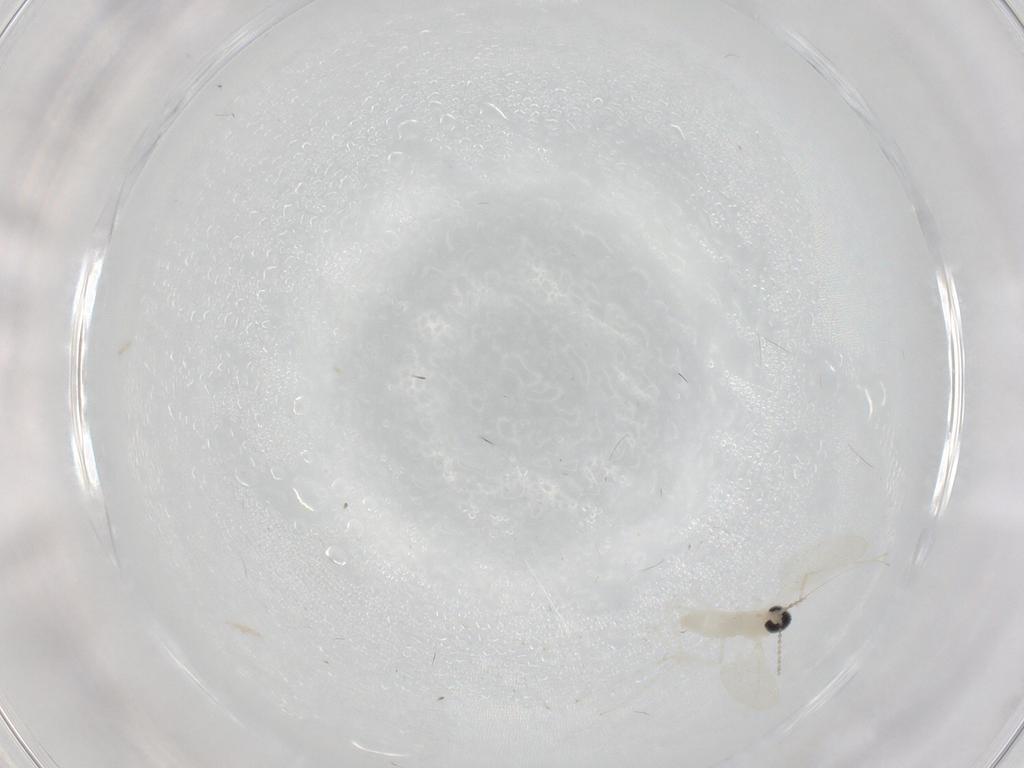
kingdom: Animalia
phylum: Arthropoda
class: Insecta
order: Diptera
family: Cecidomyiidae
